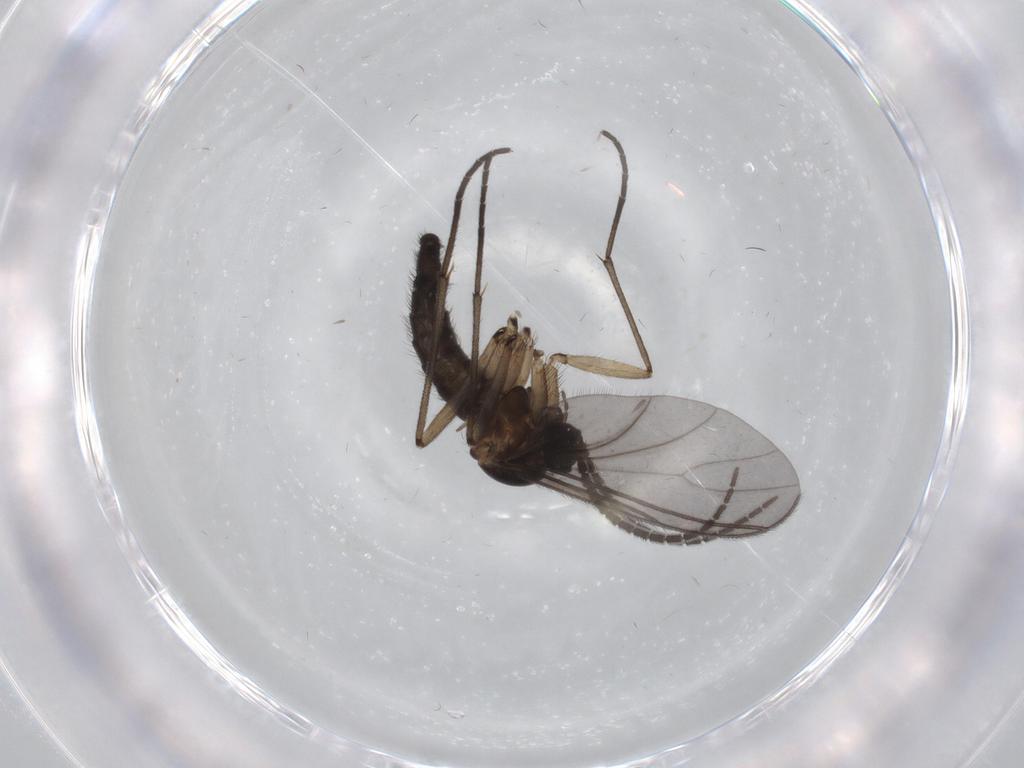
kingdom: Animalia
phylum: Arthropoda
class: Insecta
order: Diptera
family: Sciaridae
